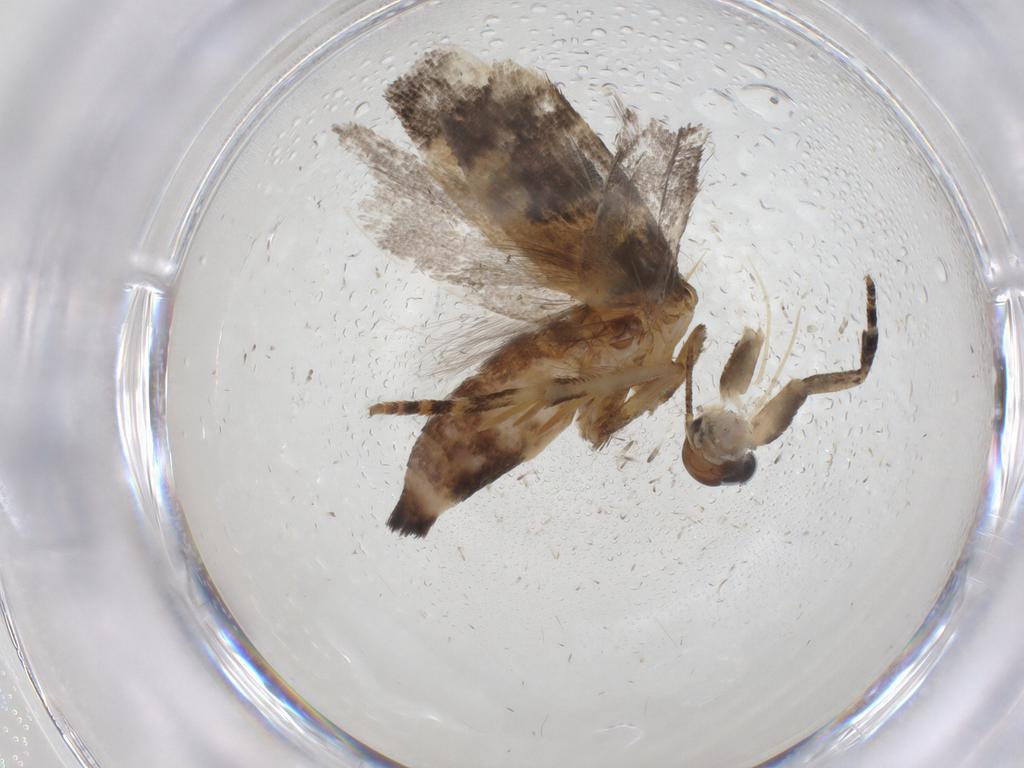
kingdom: Animalia
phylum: Arthropoda
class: Insecta
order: Lepidoptera
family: Gelechiidae
